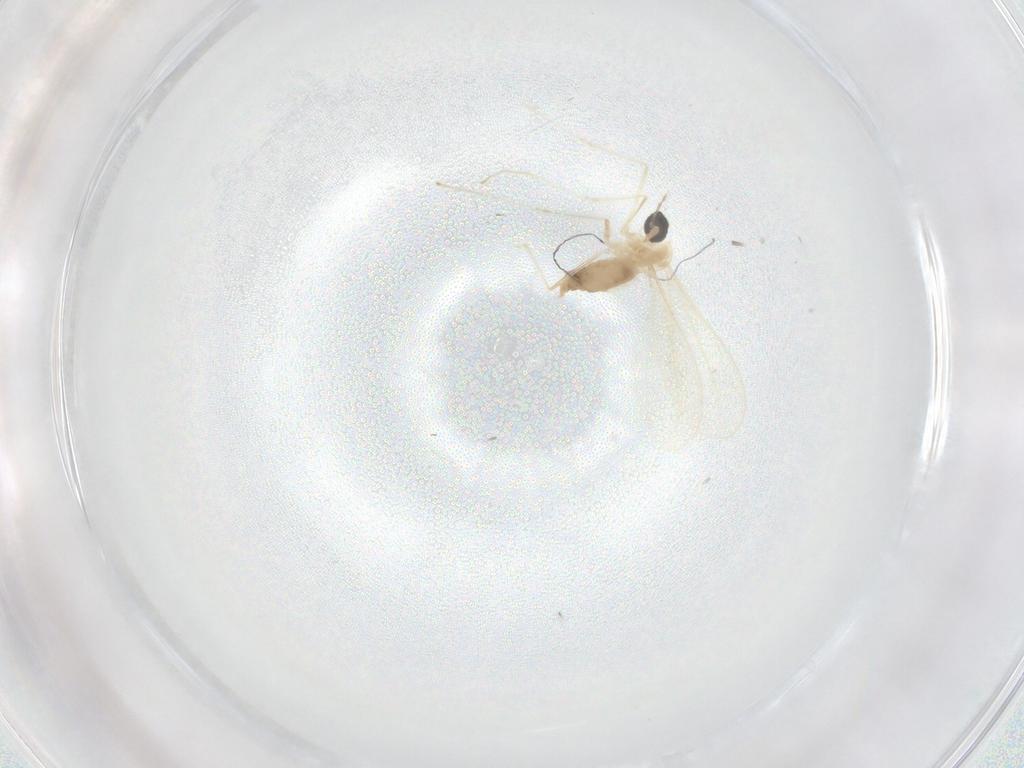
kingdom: Animalia
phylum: Arthropoda
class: Insecta
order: Diptera
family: Cecidomyiidae
